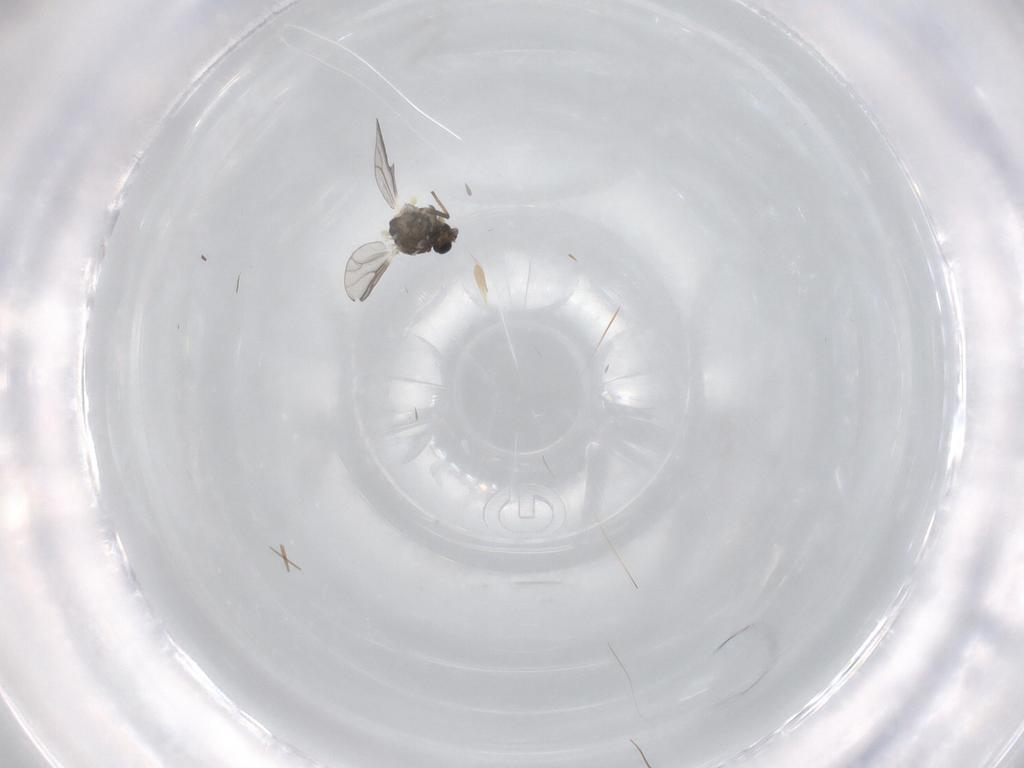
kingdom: Animalia
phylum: Arthropoda
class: Insecta
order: Diptera
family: Chironomidae
